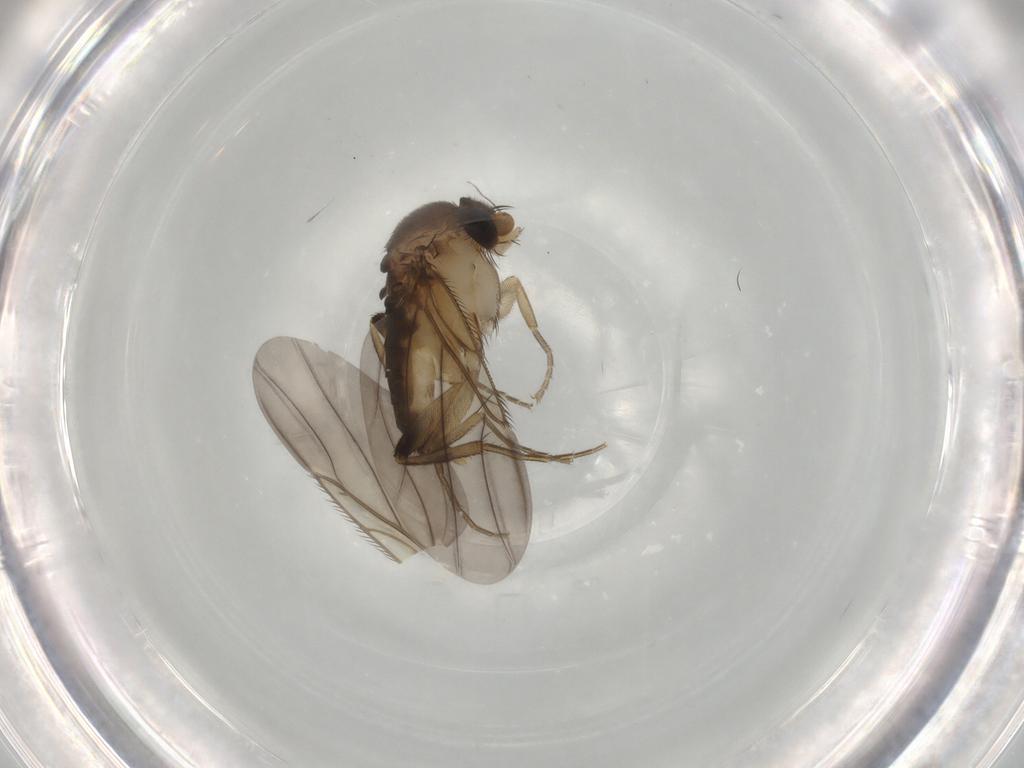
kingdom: Animalia
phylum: Arthropoda
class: Insecta
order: Diptera
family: Phoridae
